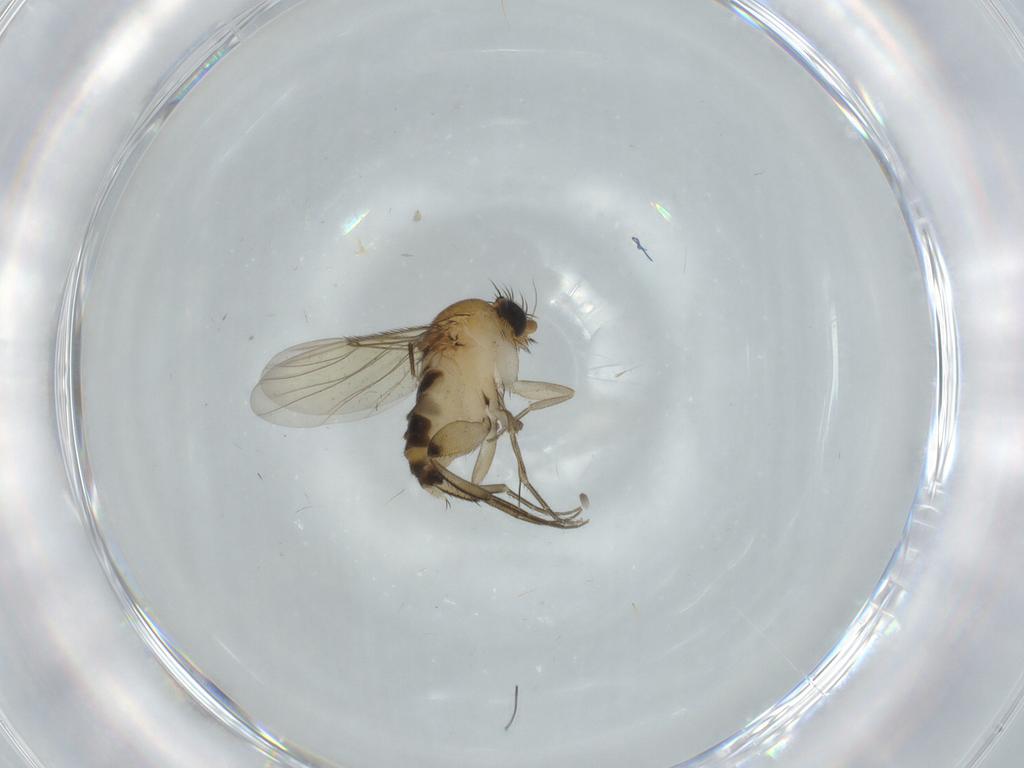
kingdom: Animalia
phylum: Arthropoda
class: Insecta
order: Diptera
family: Phoridae
